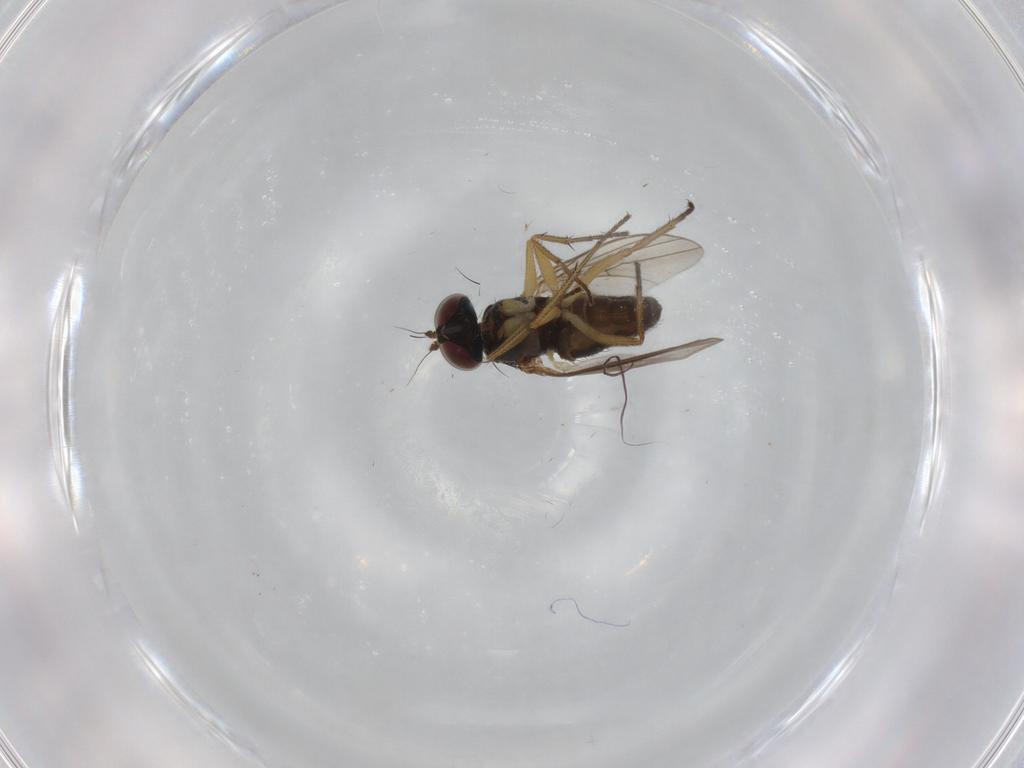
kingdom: Animalia
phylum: Arthropoda
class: Insecta
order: Diptera
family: Dolichopodidae
